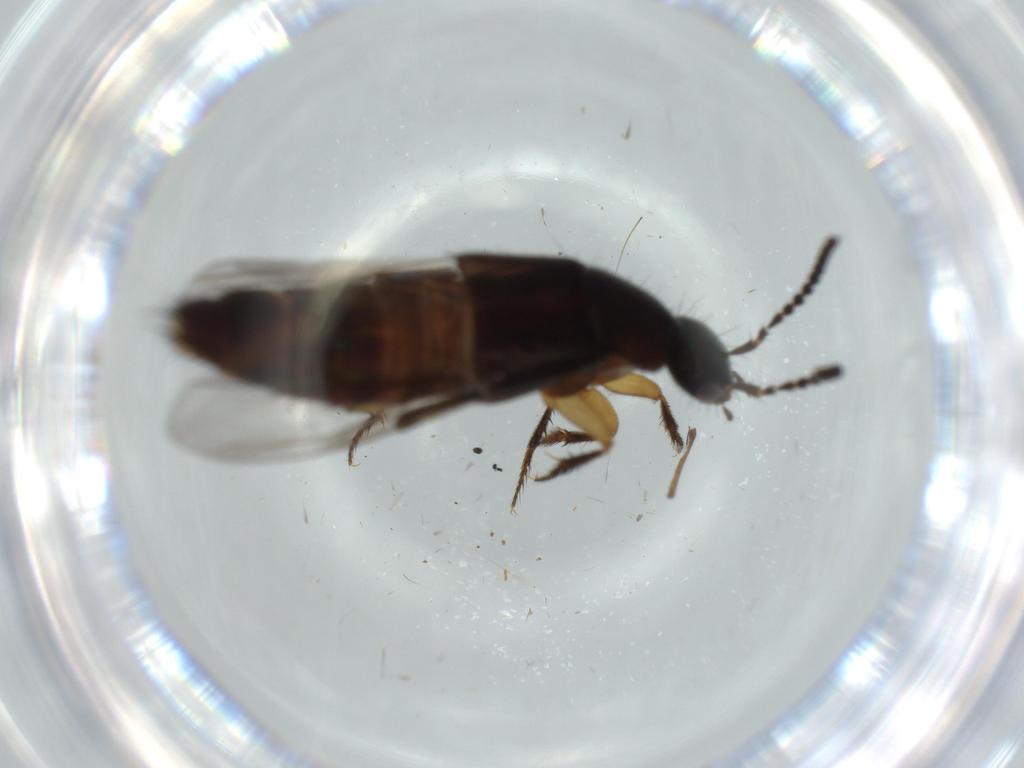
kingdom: Animalia
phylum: Arthropoda
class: Insecta
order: Coleoptera
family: Staphylinidae
